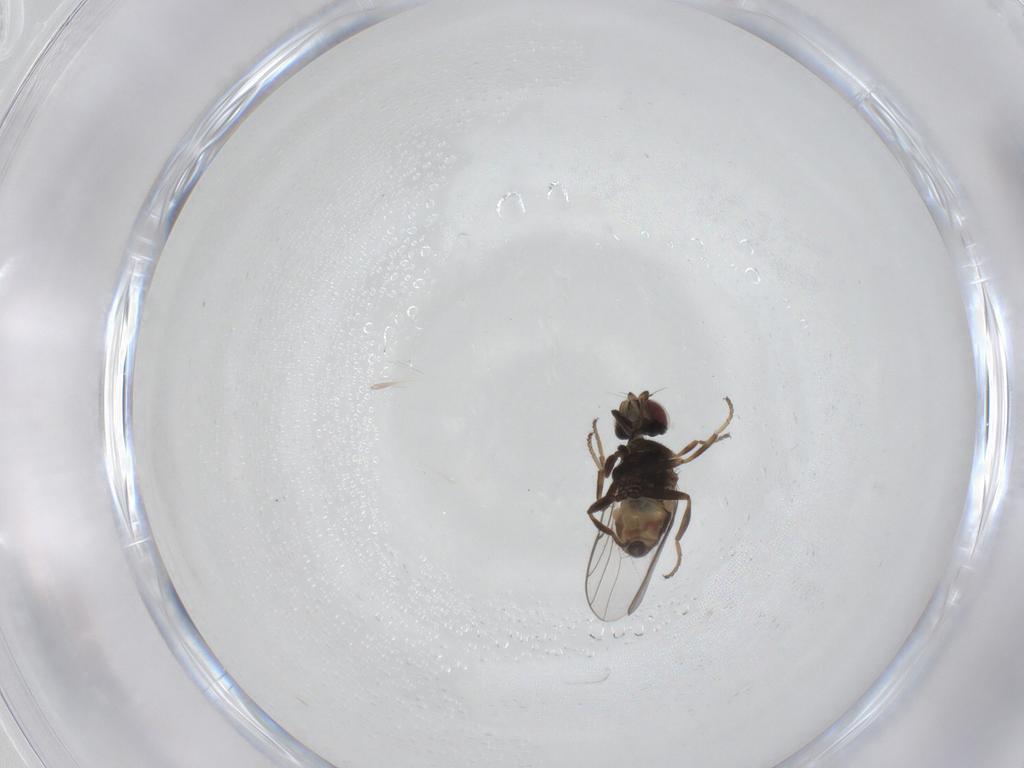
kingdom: Animalia
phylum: Arthropoda
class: Insecta
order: Diptera
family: Chloropidae
